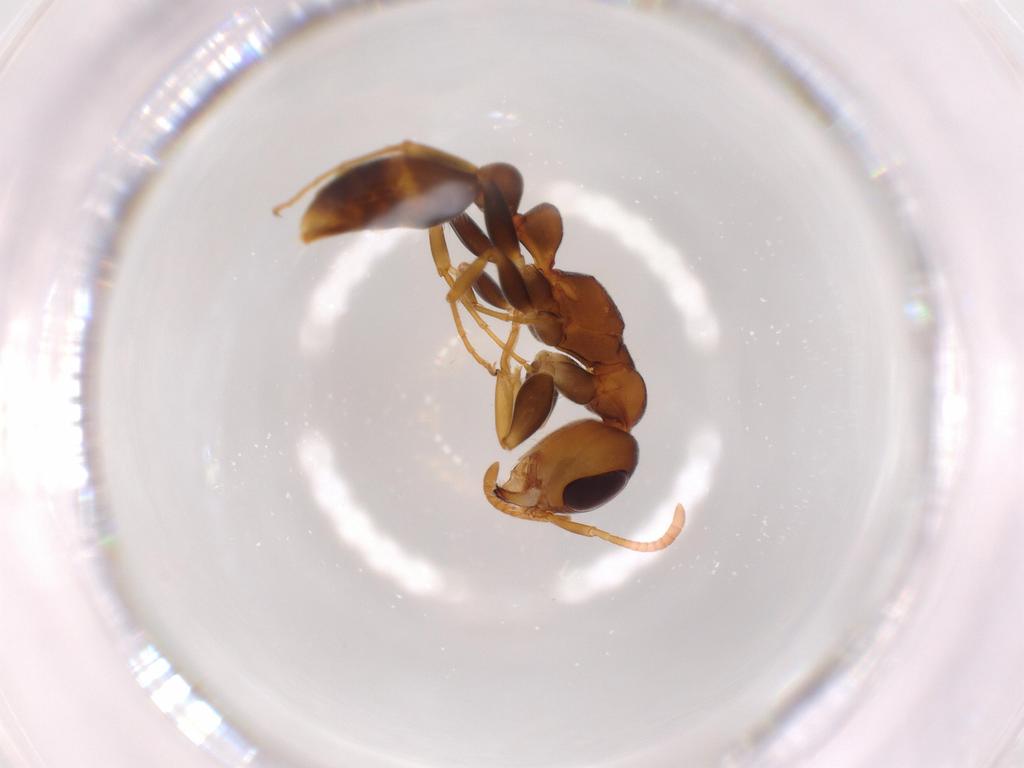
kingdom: Animalia
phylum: Arthropoda
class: Insecta
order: Hymenoptera
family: Formicidae
